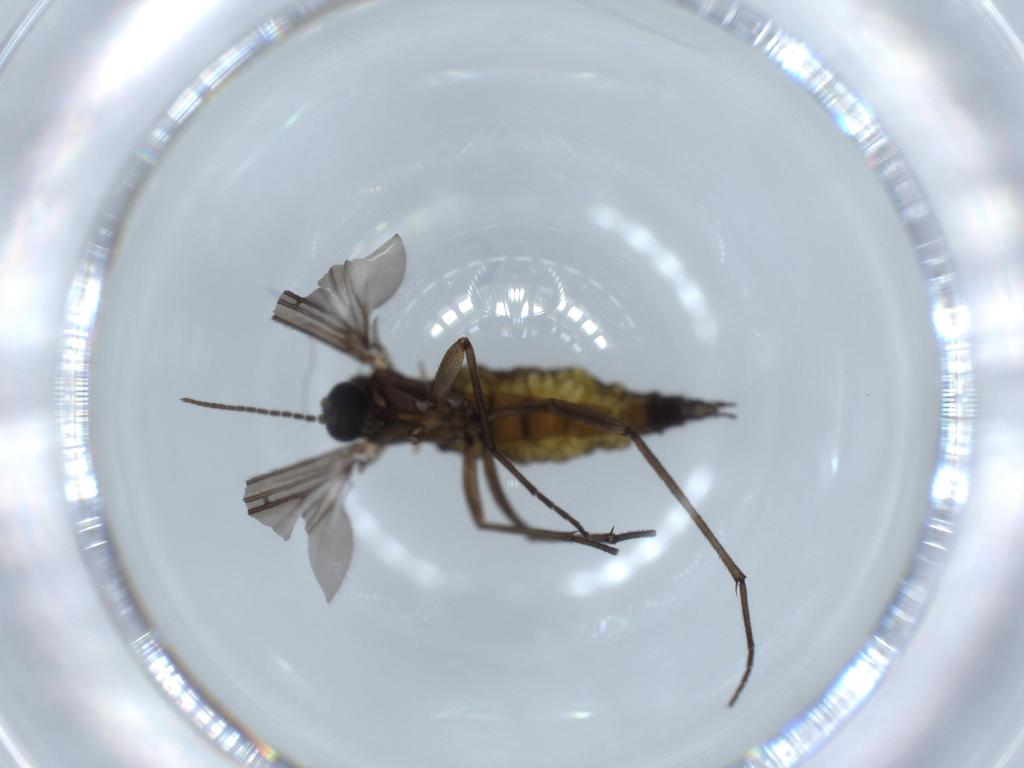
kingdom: Animalia
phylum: Arthropoda
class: Insecta
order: Diptera
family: Sciaridae
